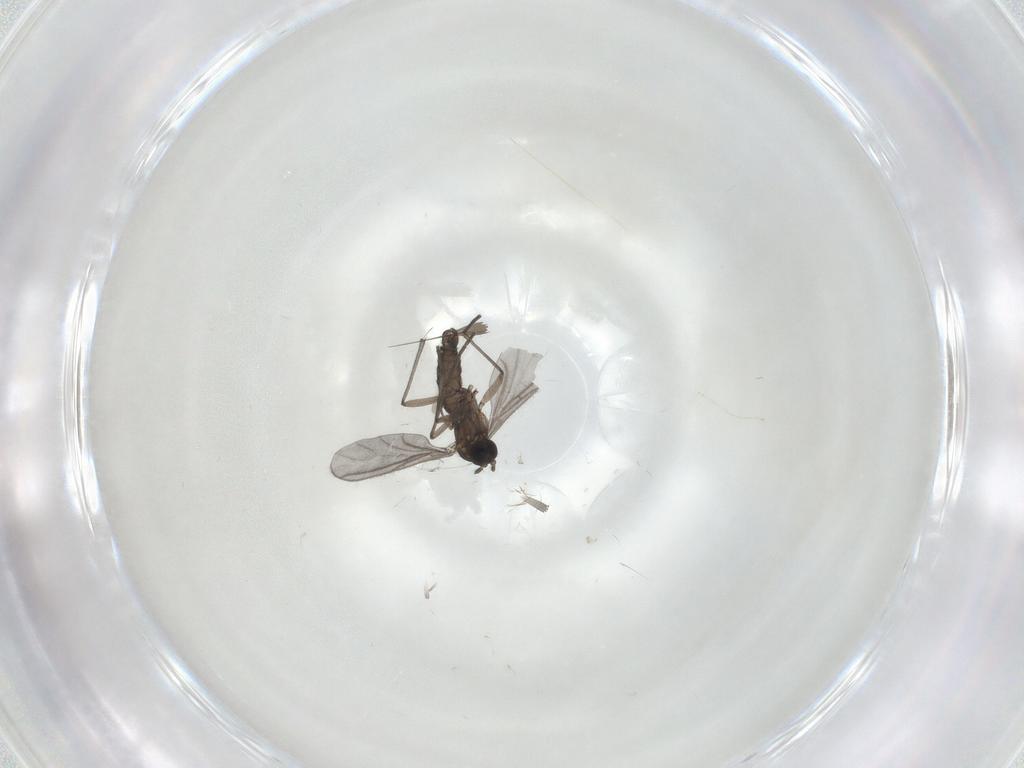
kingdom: Animalia
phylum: Arthropoda
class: Insecta
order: Diptera
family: Sciaridae
